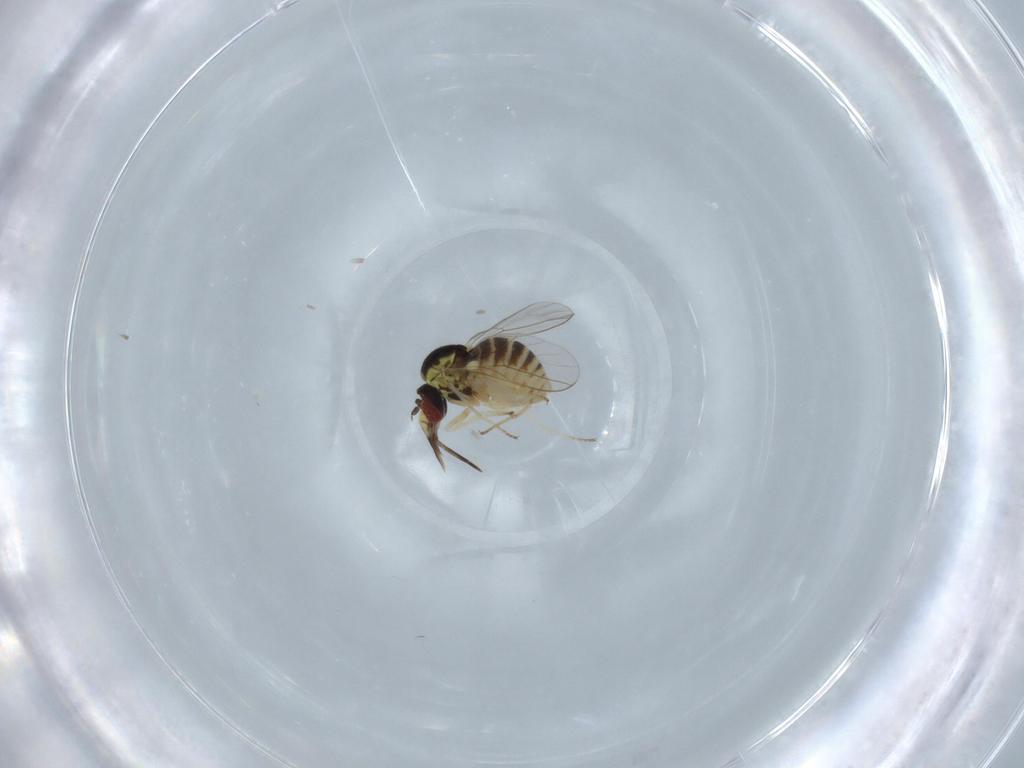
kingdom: Animalia
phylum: Arthropoda
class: Insecta
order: Diptera
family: Bombyliidae
